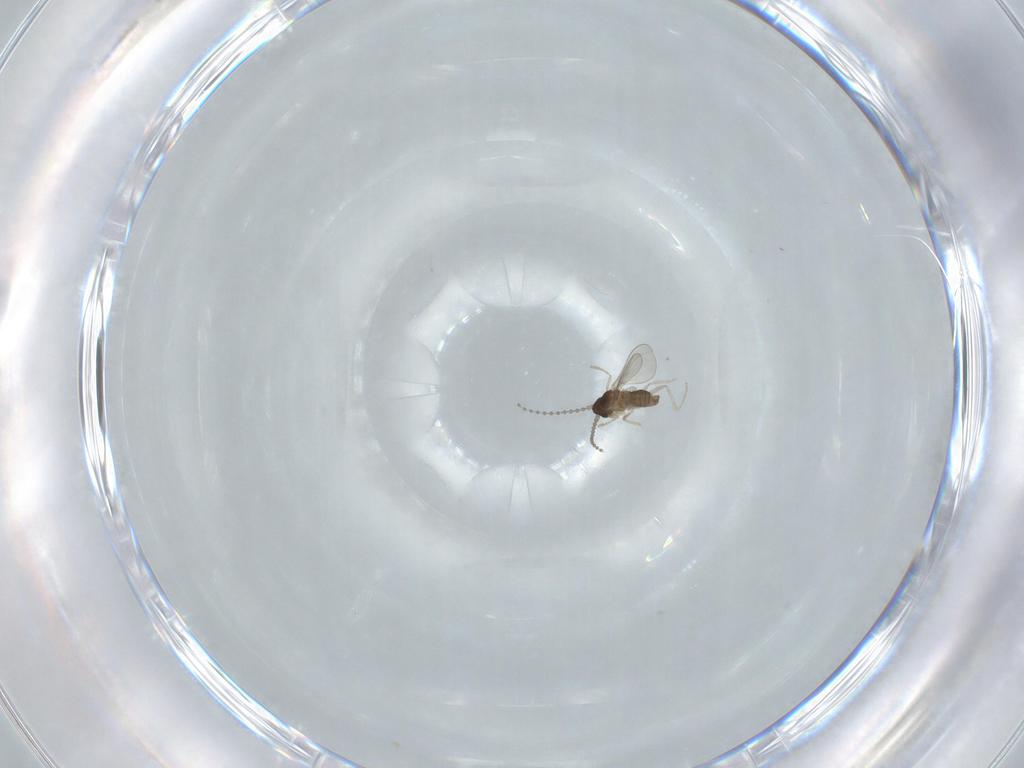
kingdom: Animalia
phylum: Arthropoda
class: Insecta
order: Diptera
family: Cecidomyiidae
